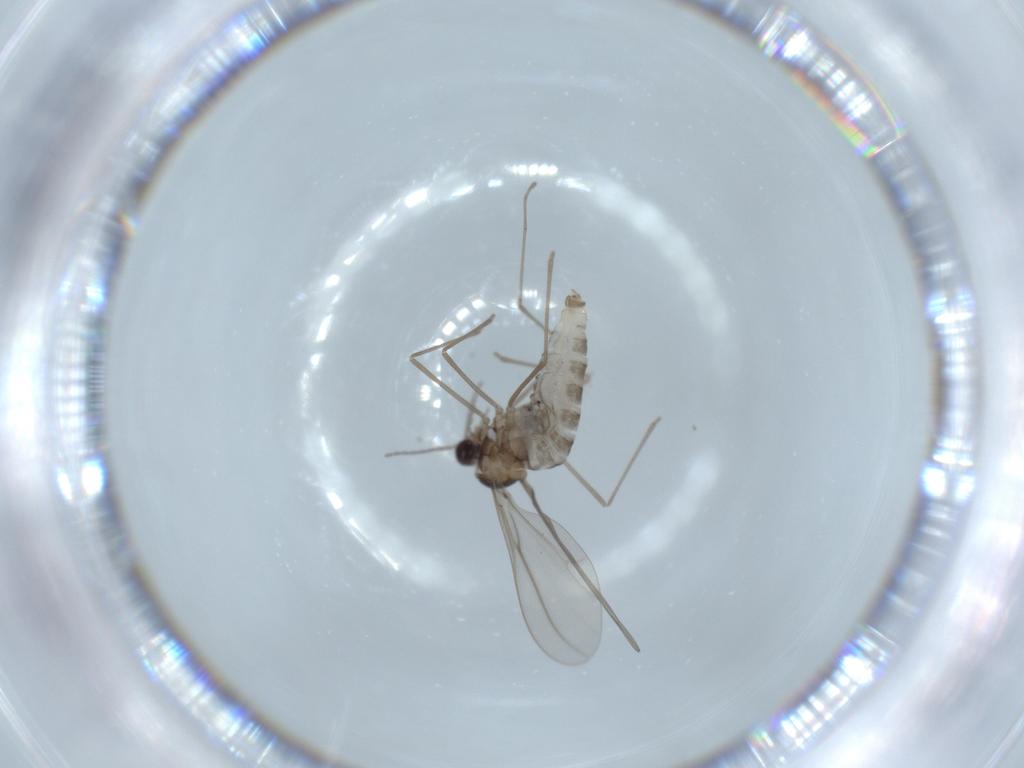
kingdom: Animalia
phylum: Arthropoda
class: Insecta
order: Diptera
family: Cecidomyiidae
